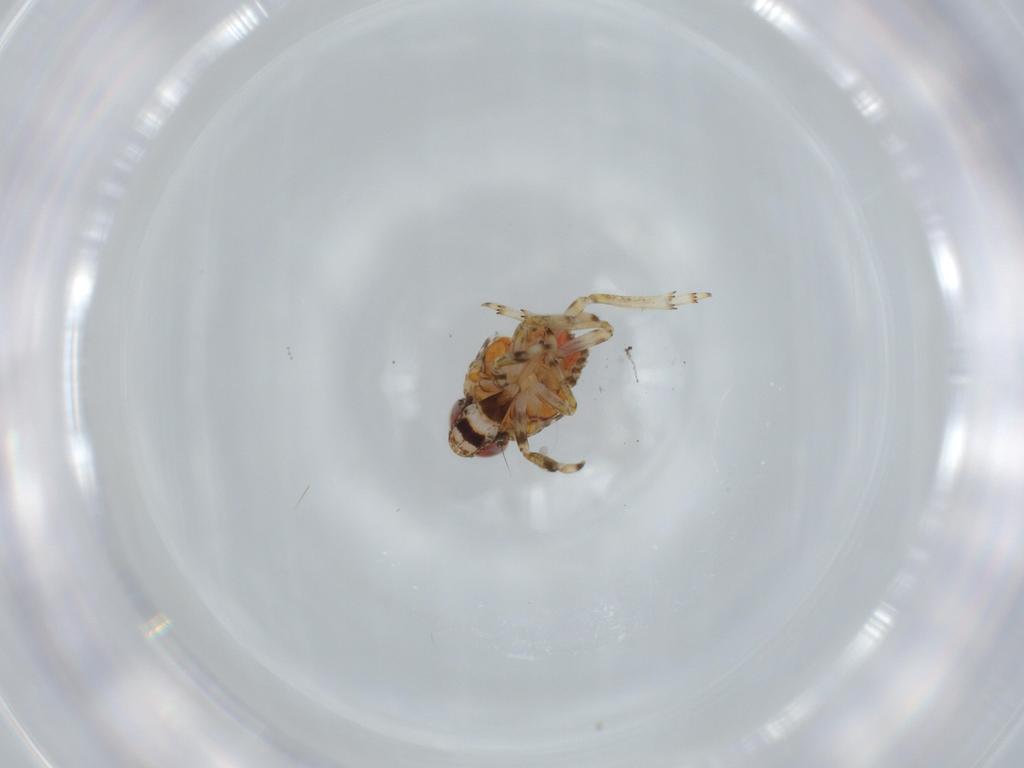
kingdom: Animalia
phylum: Arthropoda
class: Insecta
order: Hemiptera
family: Issidae
